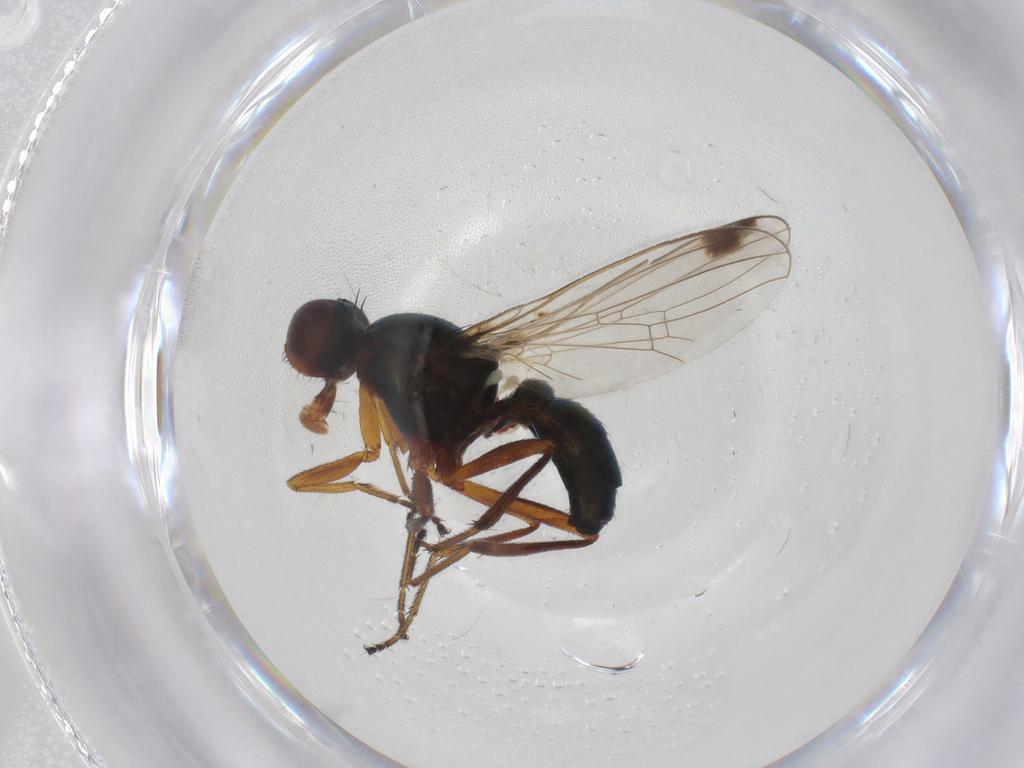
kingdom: Animalia
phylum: Arthropoda
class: Insecta
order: Diptera
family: Sepsidae
